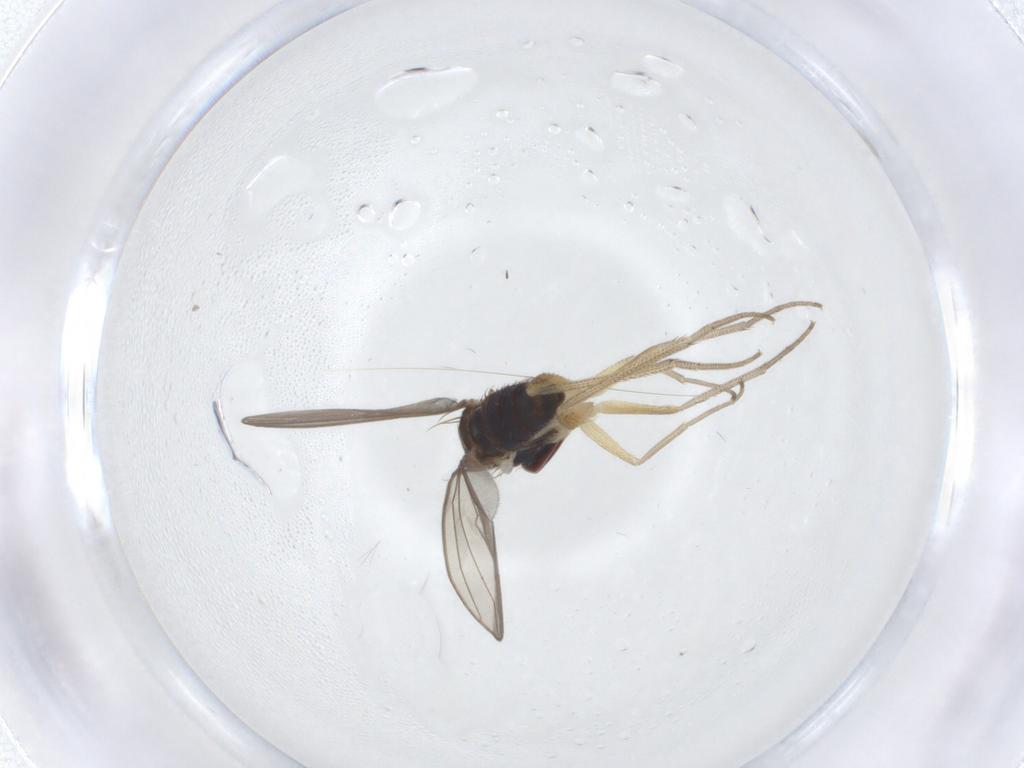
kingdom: Animalia
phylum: Arthropoda
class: Insecta
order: Diptera
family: Dolichopodidae
